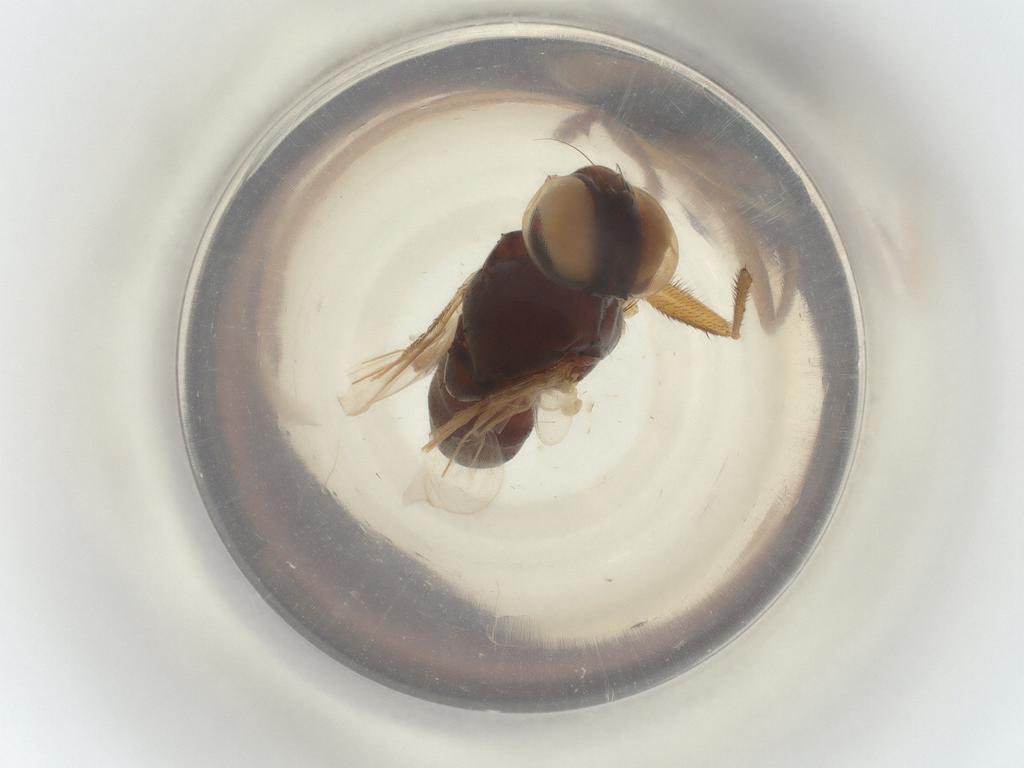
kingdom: Animalia
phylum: Arthropoda
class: Insecta
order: Diptera
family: Muscidae
